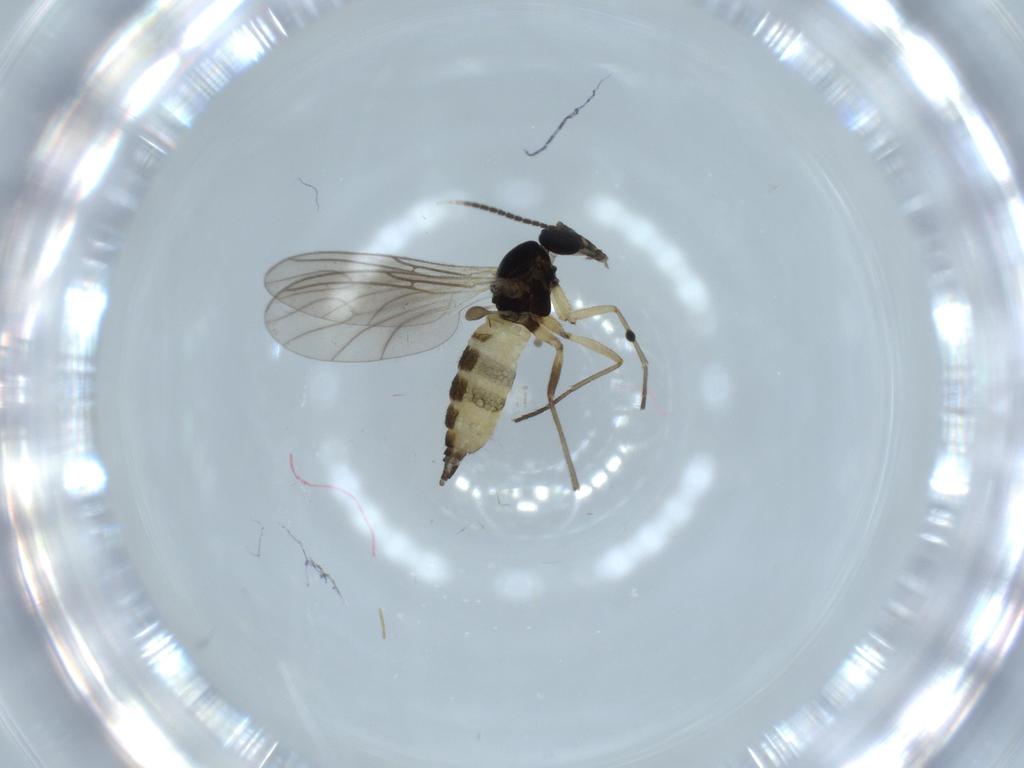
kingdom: Animalia
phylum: Arthropoda
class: Insecta
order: Diptera
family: Sciaridae
